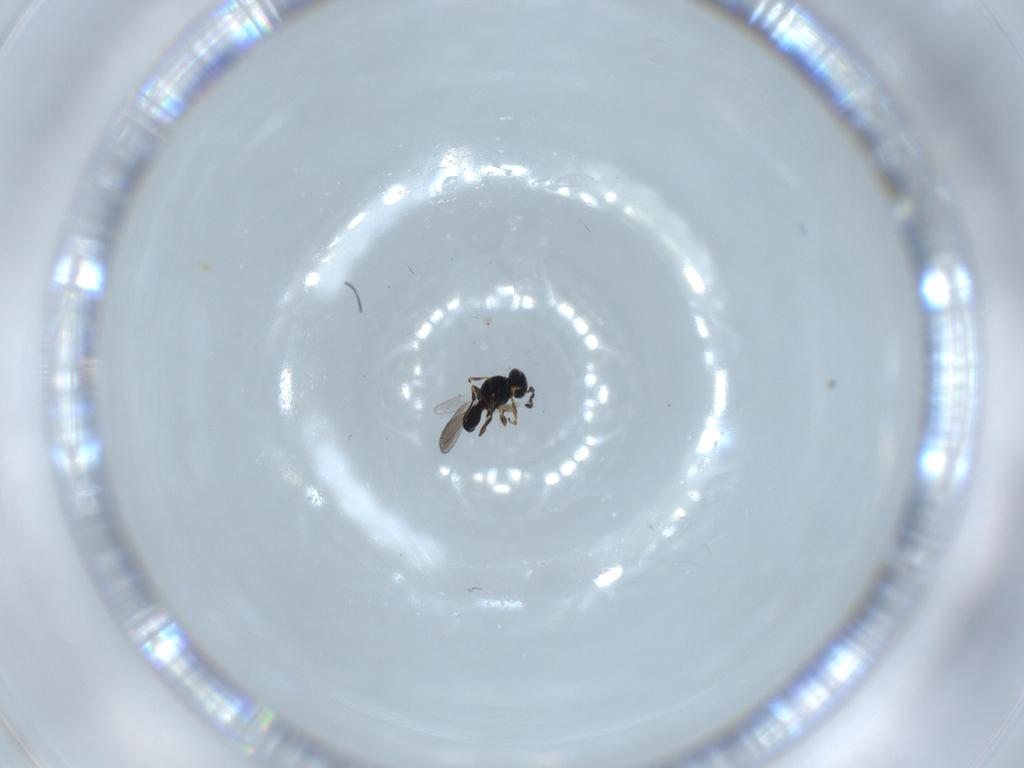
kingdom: Animalia
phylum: Arthropoda
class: Insecta
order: Hymenoptera
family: Platygastridae
